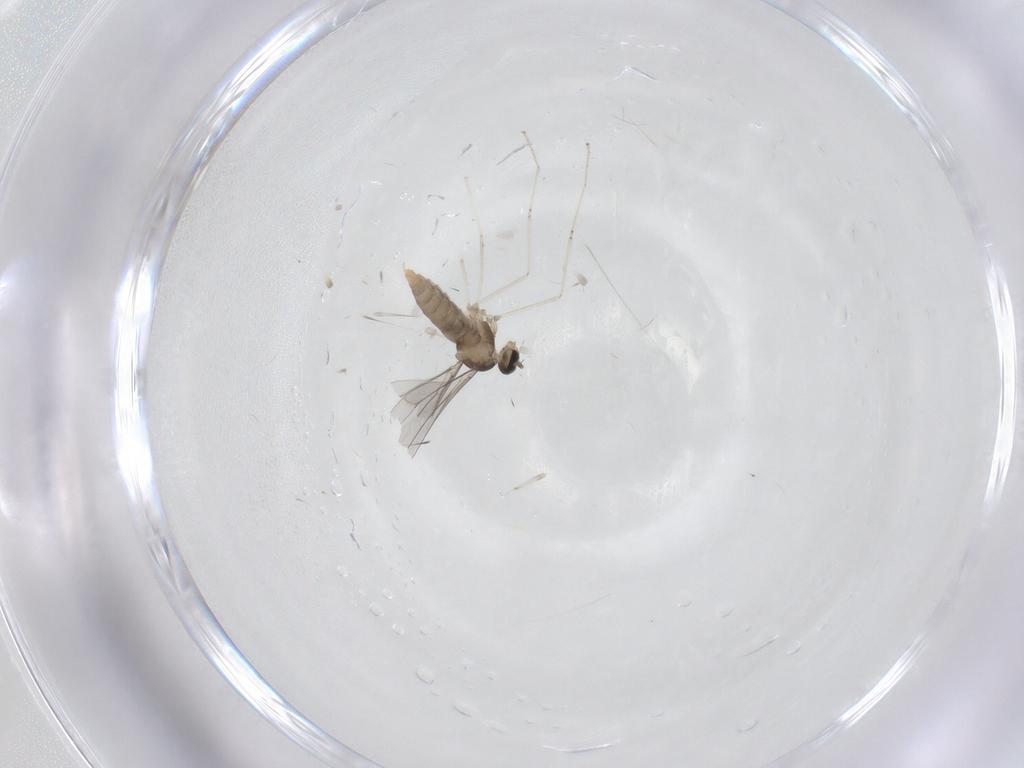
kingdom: Animalia
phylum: Arthropoda
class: Insecta
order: Diptera
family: Cecidomyiidae
